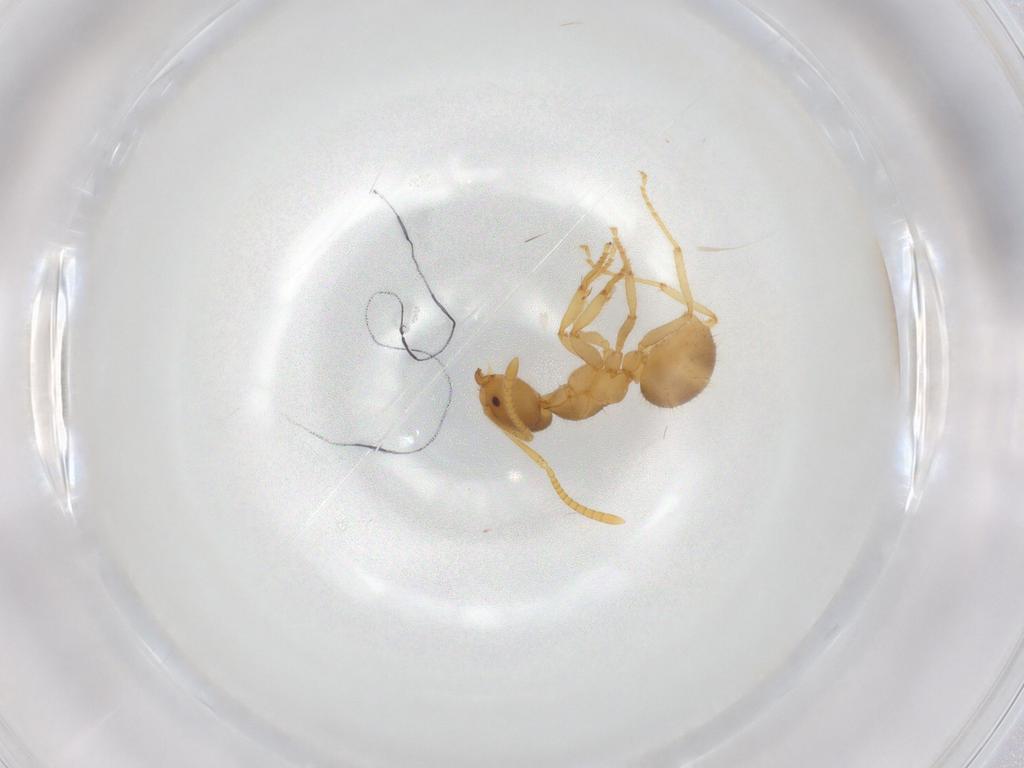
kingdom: Animalia
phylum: Arthropoda
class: Insecta
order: Hymenoptera
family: Formicidae
